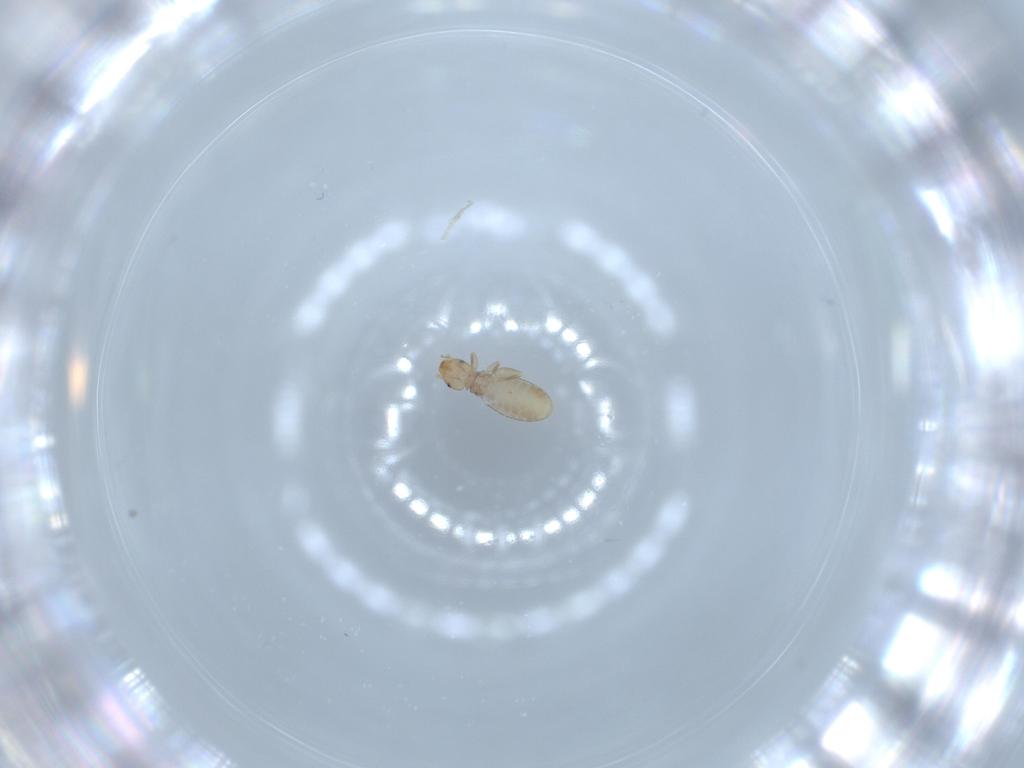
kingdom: Animalia
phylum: Arthropoda
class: Insecta
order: Psocodea
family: Liposcelididae
